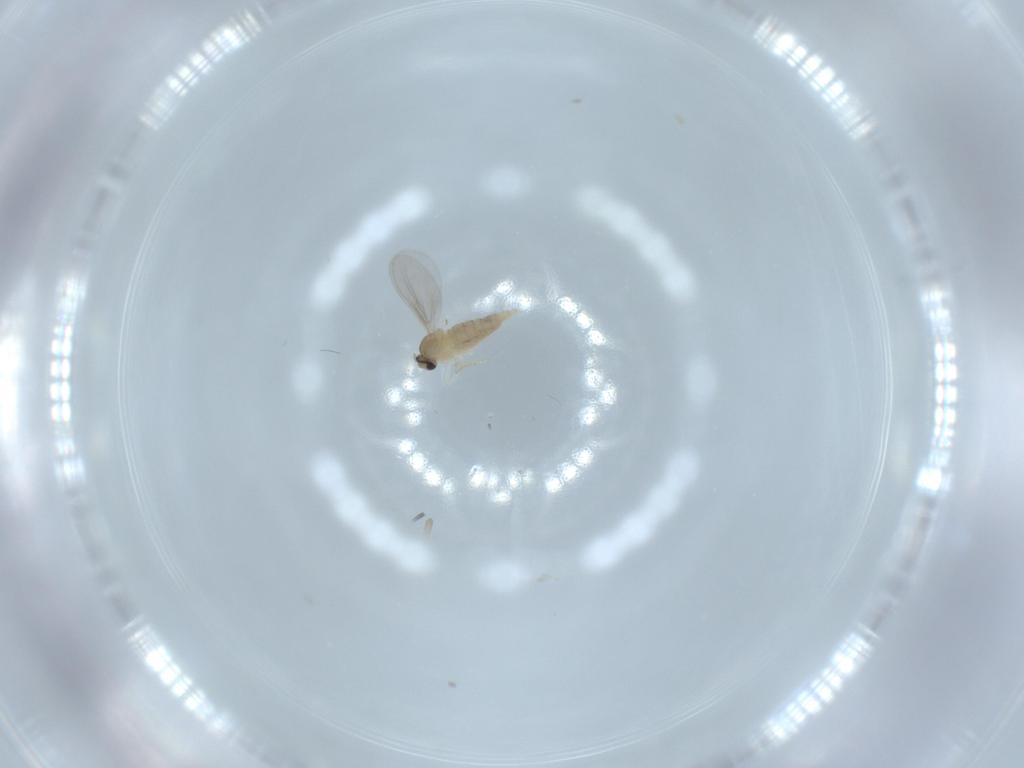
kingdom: Animalia
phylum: Arthropoda
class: Insecta
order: Diptera
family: Cecidomyiidae
